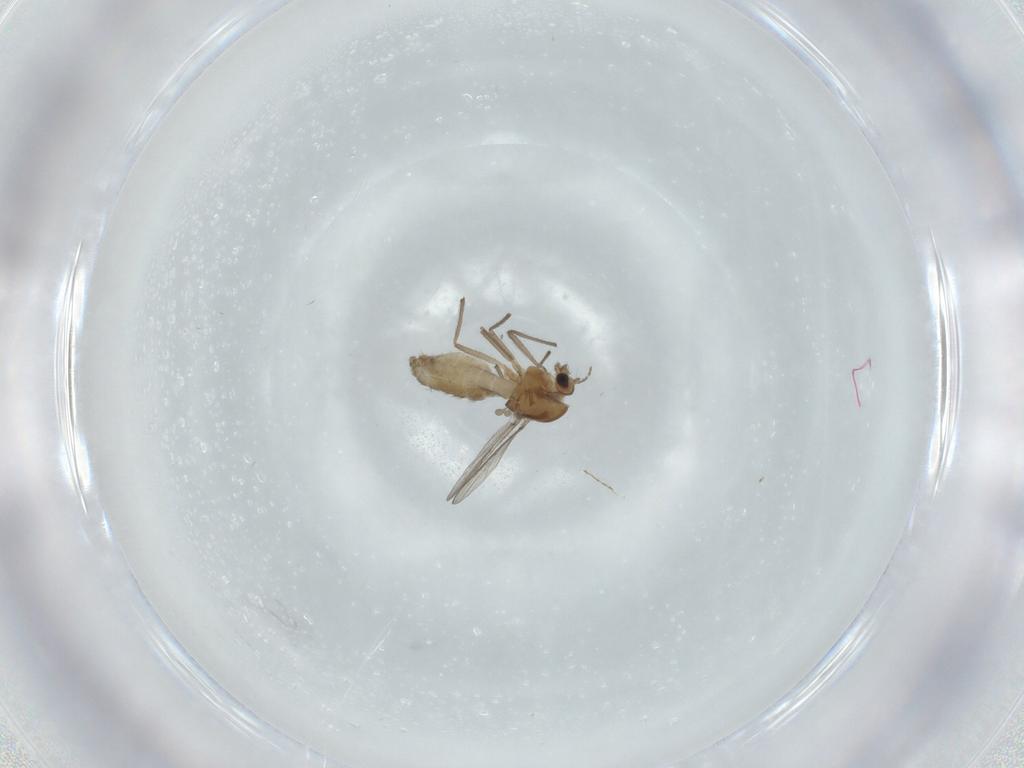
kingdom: Animalia
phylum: Arthropoda
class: Insecta
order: Diptera
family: Chironomidae
